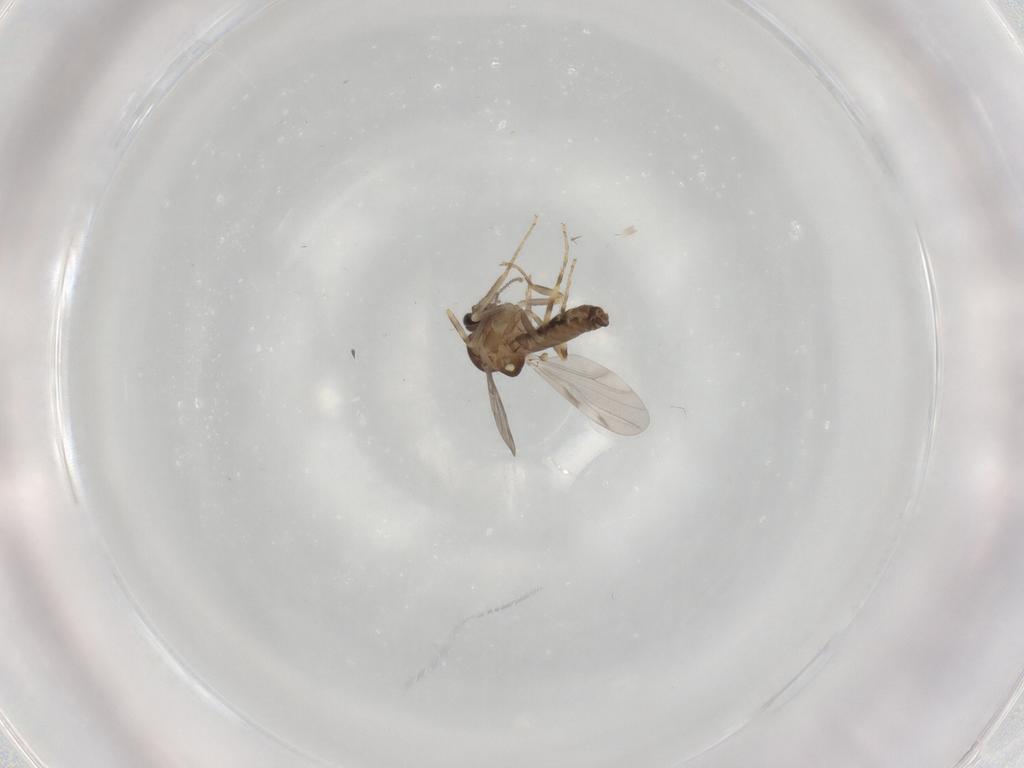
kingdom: Animalia
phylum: Arthropoda
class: Insecta
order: Diptera
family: Ceratopogonidae
